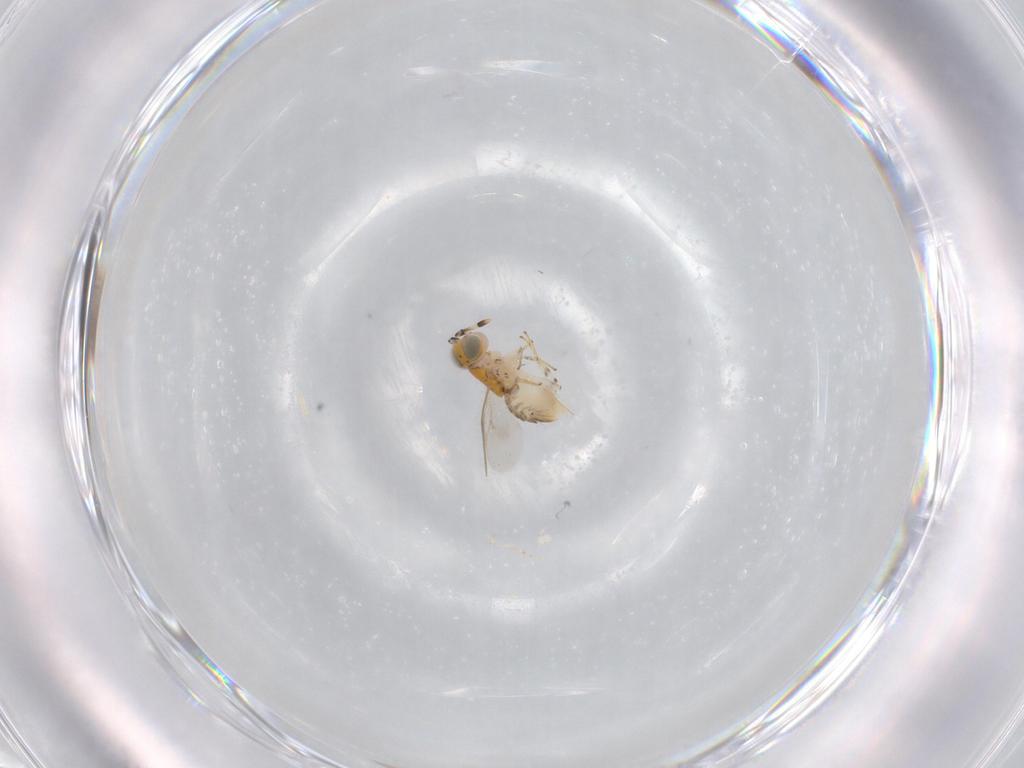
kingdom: Animalia
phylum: Arthropoda
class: Insecta
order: Hymenoptera
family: Encyrtidae
